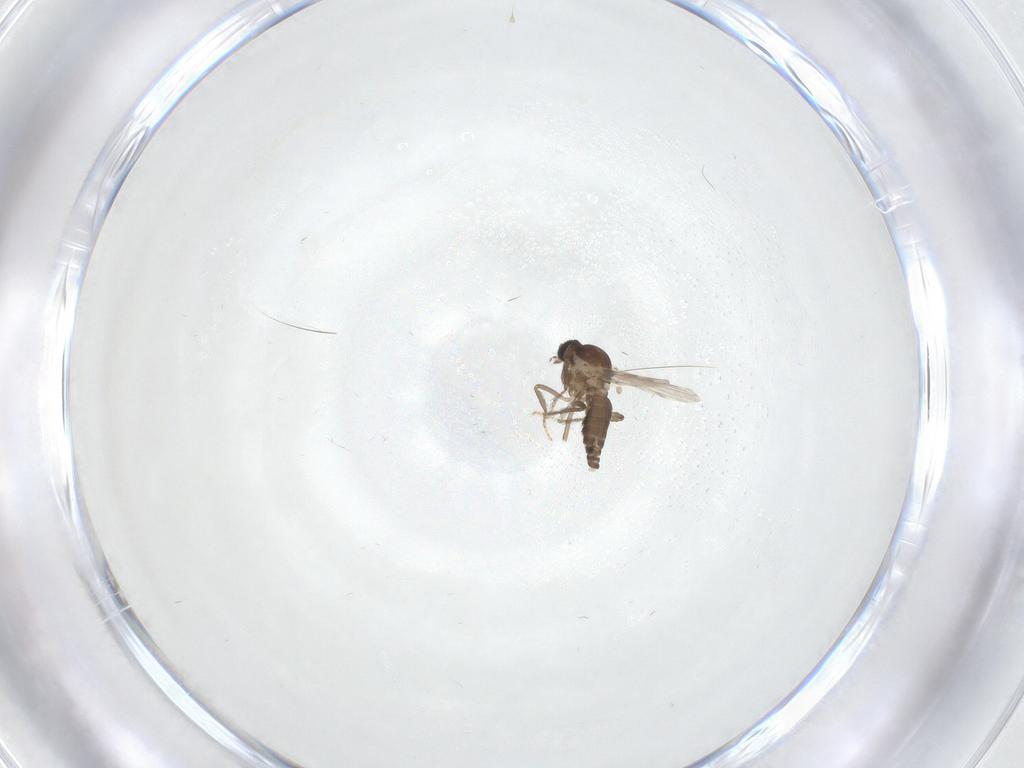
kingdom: Animalia
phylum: Arthropoda
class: Insecta
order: Diptera
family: Ceratopogonidae
